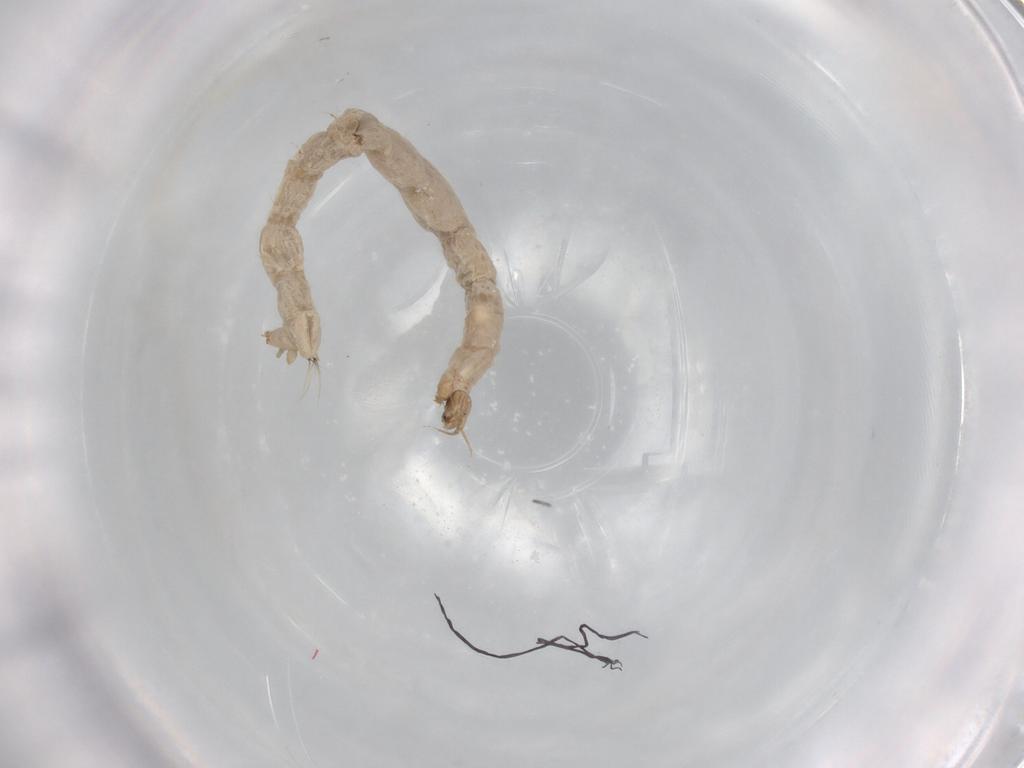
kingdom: Animalia
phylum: Arthropoda
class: Insecta
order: Diptera
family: Chironomidae
